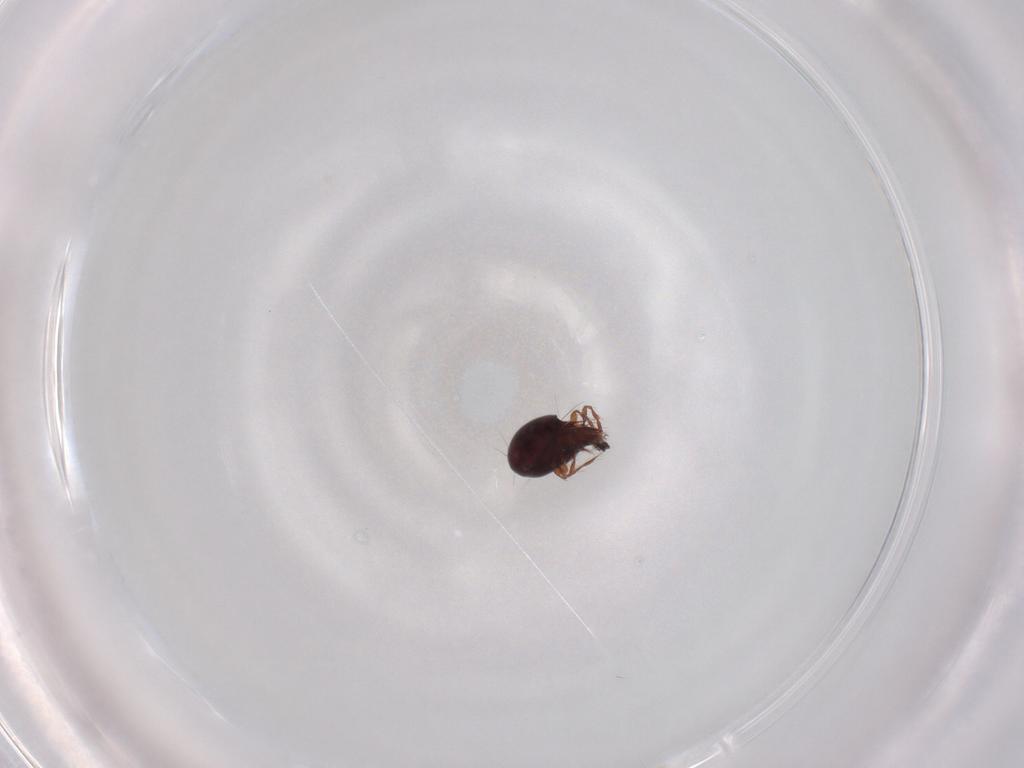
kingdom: Animalia
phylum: Arthropoda
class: Arachnida
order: Sarcoptiformes
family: Ceratoppiidae
